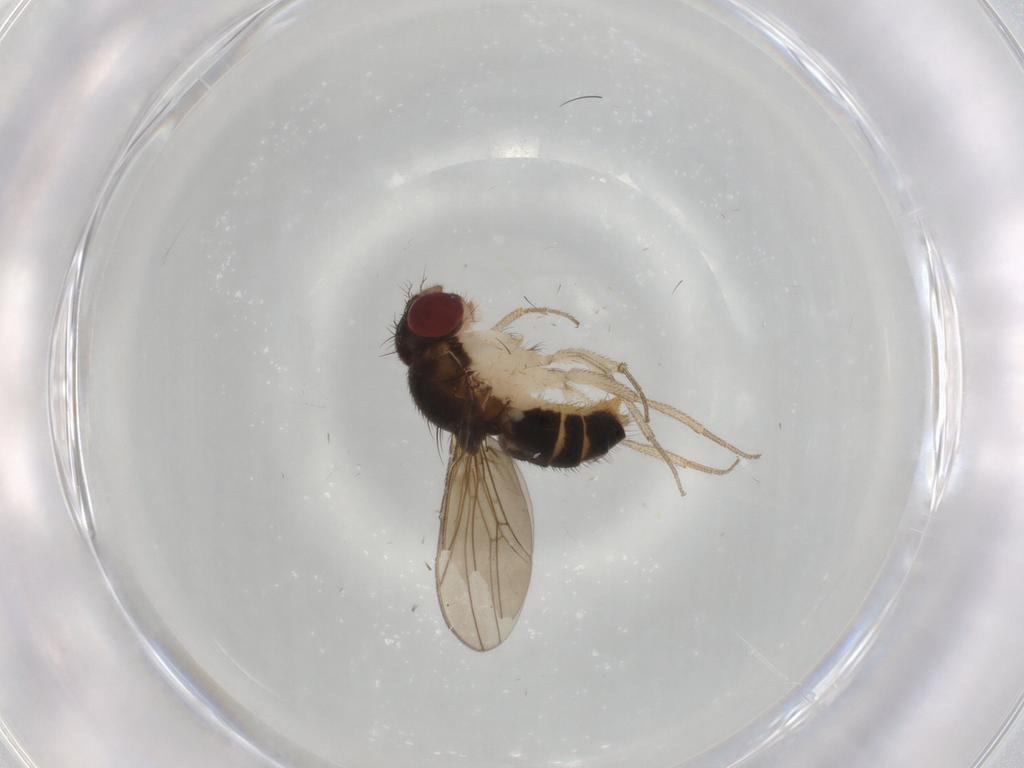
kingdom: Animalia
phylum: Arthropoda
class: Insecta
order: Diptera
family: Drosophilidae
